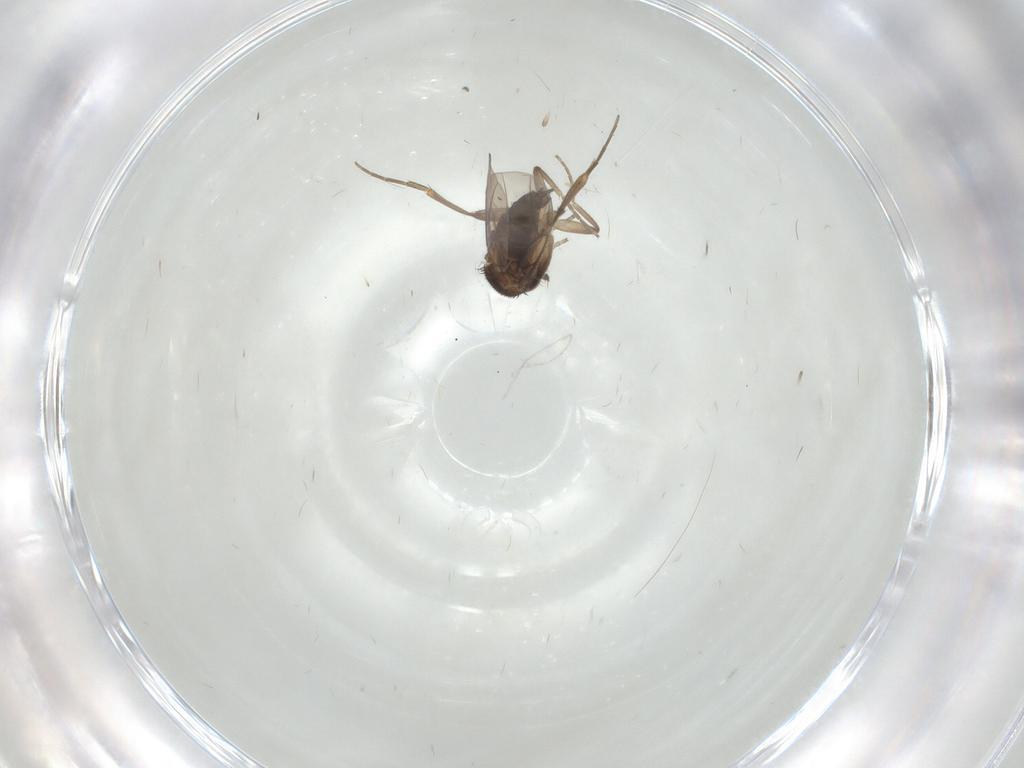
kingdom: Animalia
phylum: Arthropoda
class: Insecta
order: Diptera
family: Phoridae
